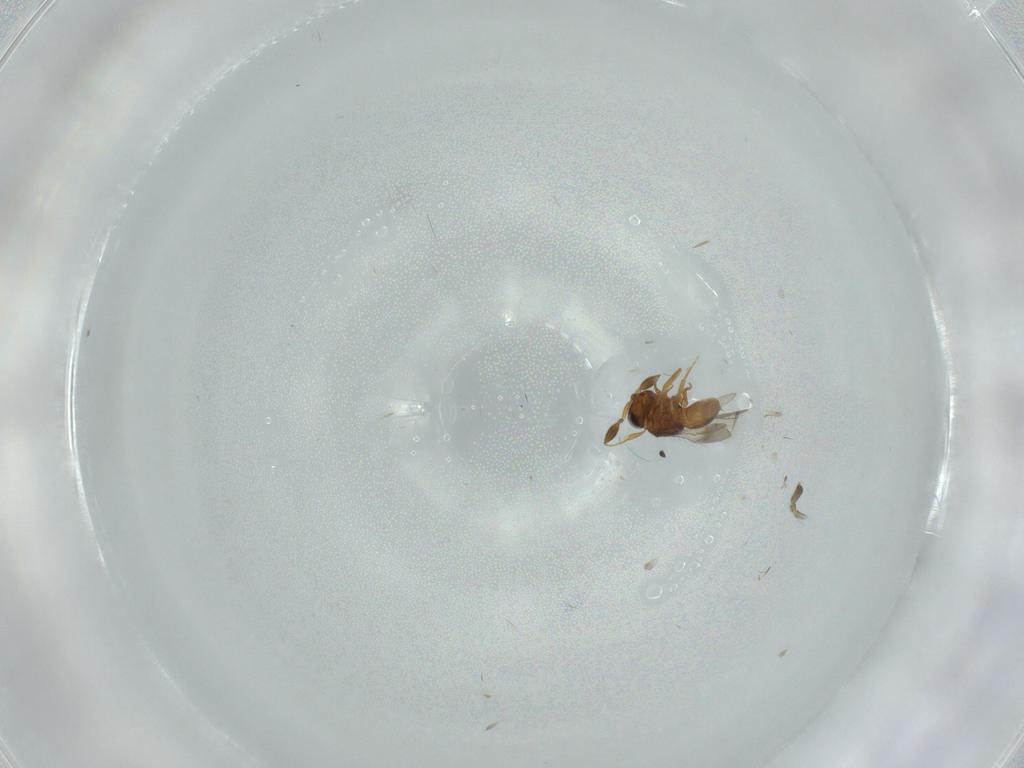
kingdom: Animalia
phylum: Arthropoda
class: Insecta
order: Hymenoptera
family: Scelionidae
